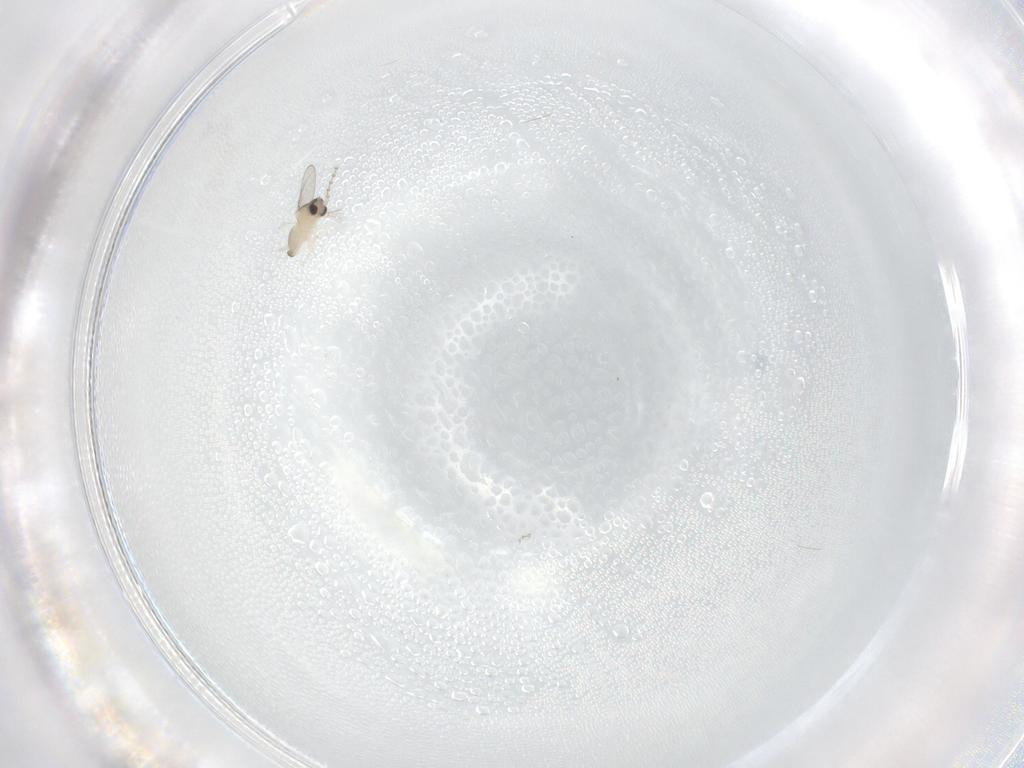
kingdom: Animalia
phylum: Arthropoda
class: Insecta
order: Diptera
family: Cecidomyiidae
